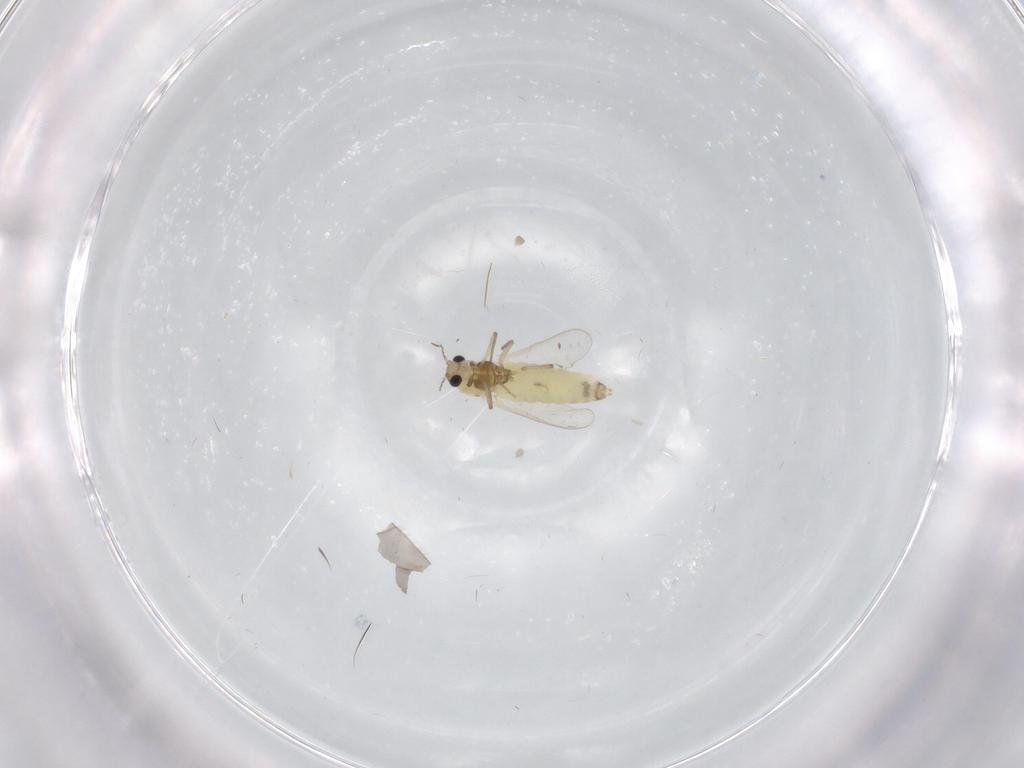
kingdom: Animalia
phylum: Arthropoda
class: Insecta
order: Diptera
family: Chironomidae
